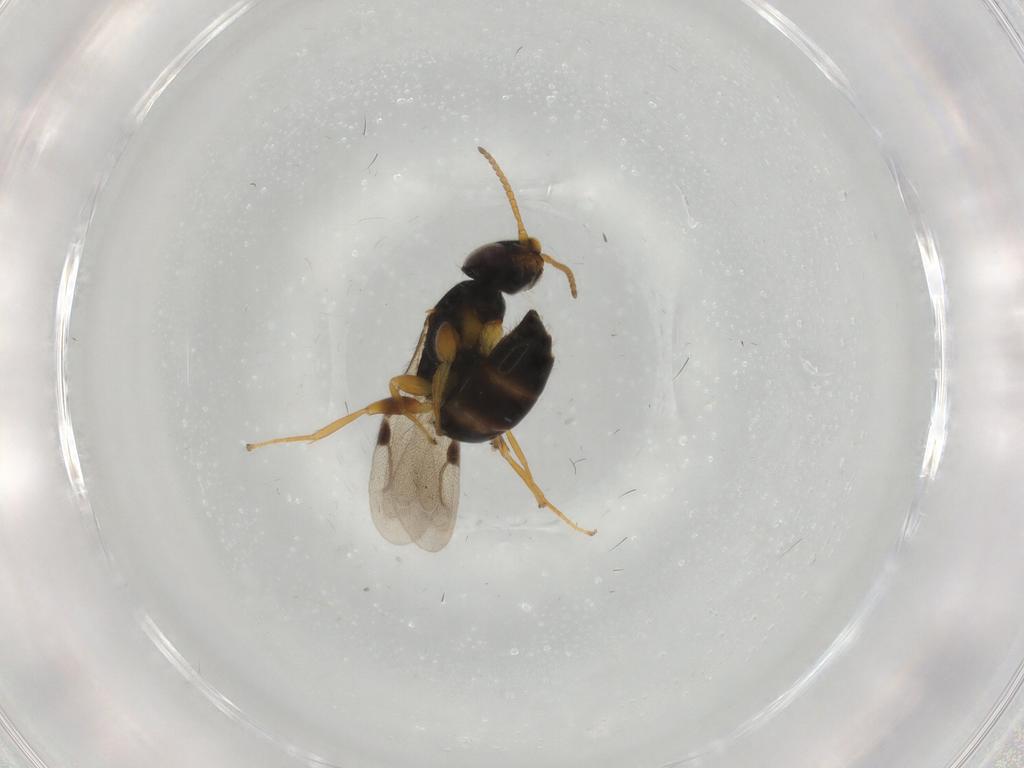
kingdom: Animalia
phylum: Arthropoda
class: Insecta
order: Hymenoptera
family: Bethylidae
